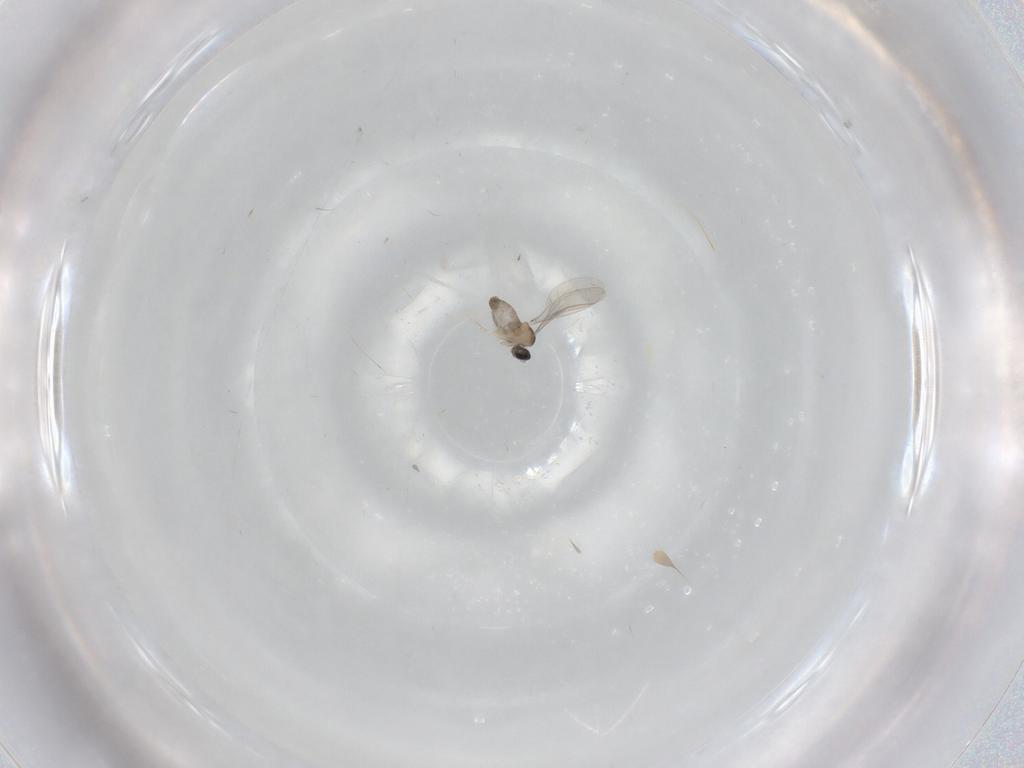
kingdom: Animalia
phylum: Arthropoda
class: Insecta
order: Diptera
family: Cecidomyiidae
